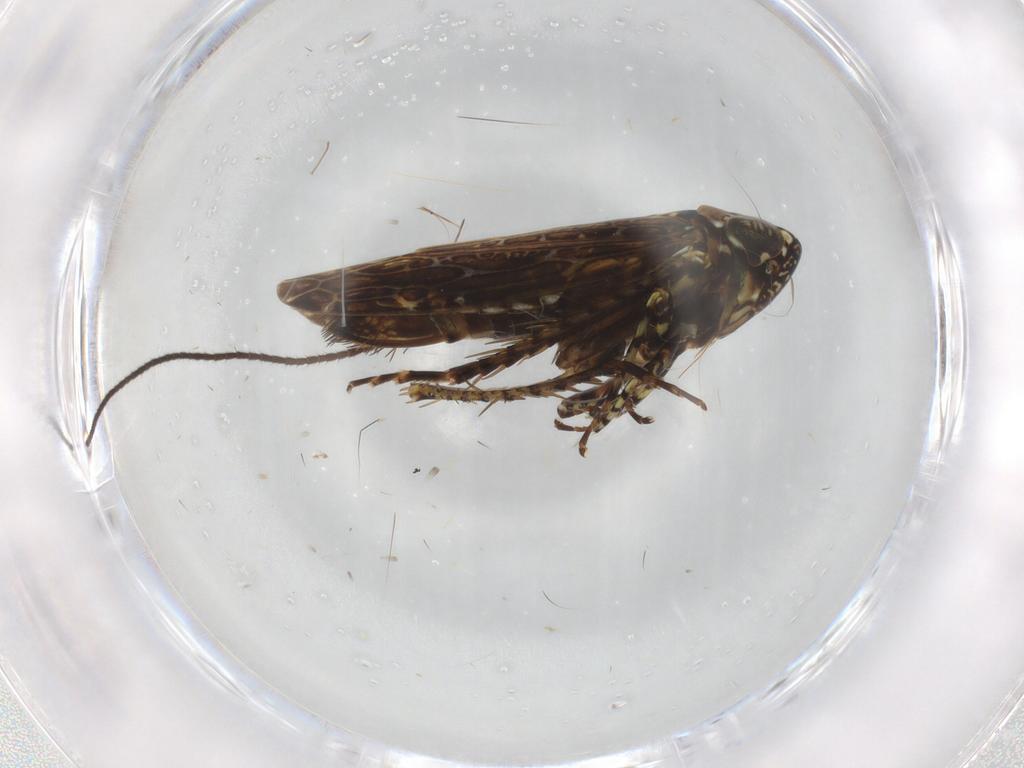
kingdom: Animalia
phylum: Arthropoda
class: Insecta
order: Hemiptera
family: Cicadellidae
